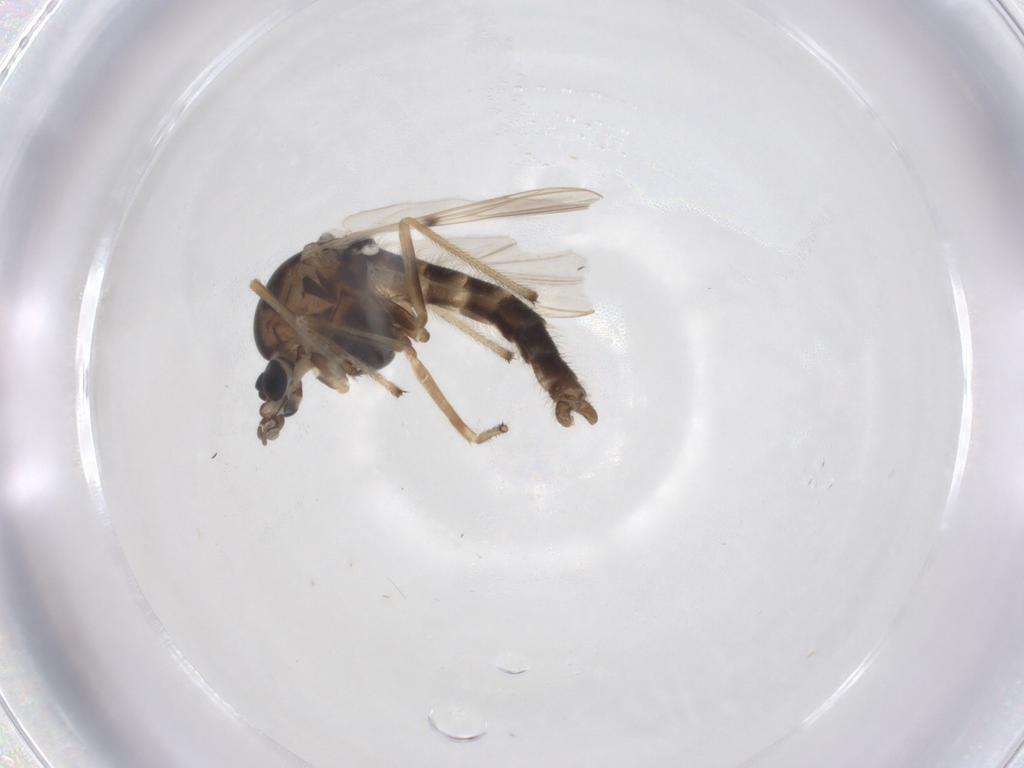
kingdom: Animalia
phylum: Arthropoda
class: Insecta
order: Diptera
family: Chironomidae
